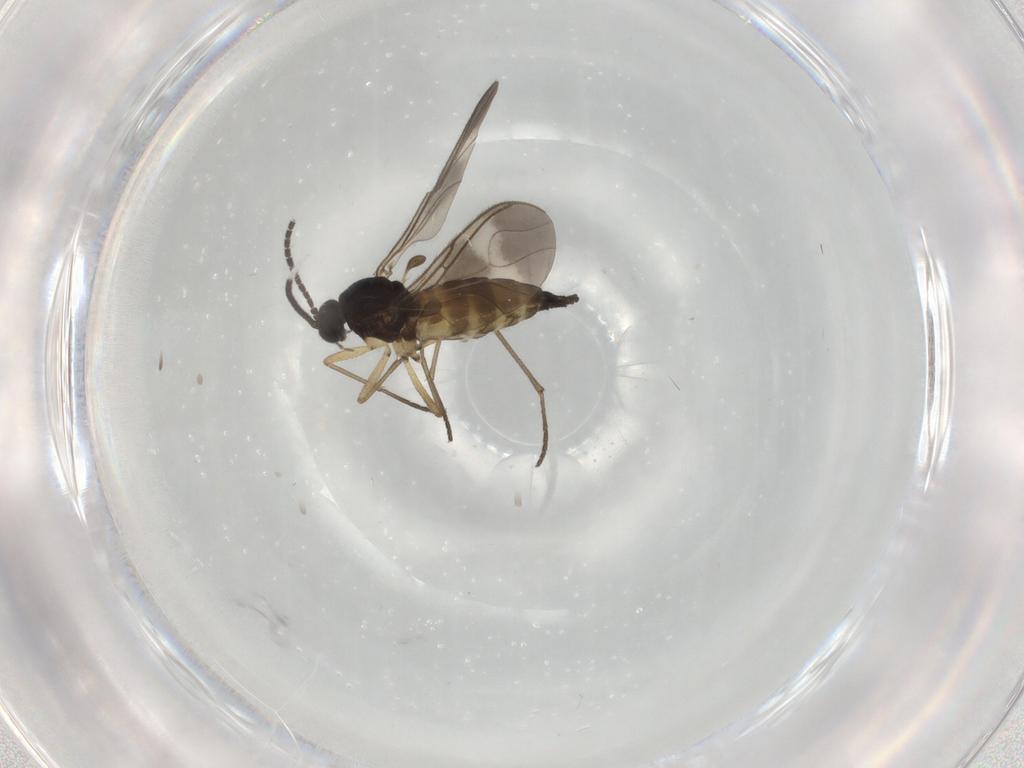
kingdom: Animalia
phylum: Arthropoda
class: Insecta
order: Diptera
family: Sciaridae
